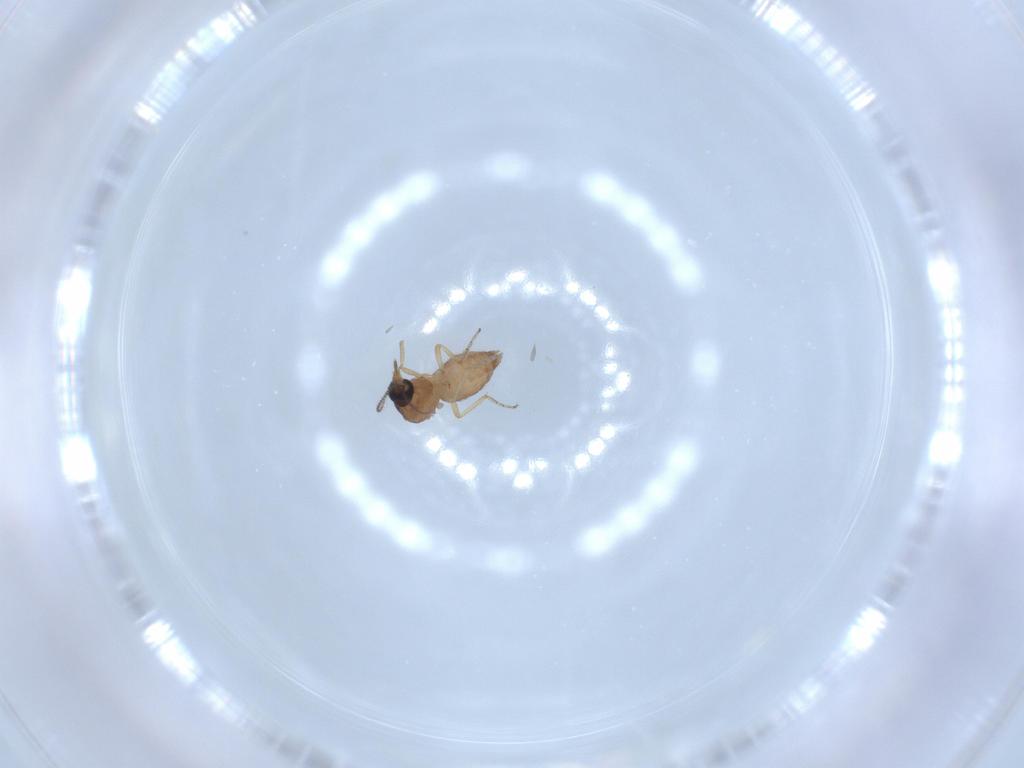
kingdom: Animalia
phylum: Arthropoda
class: Insecta
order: Diptera
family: Ceratopogonidae
